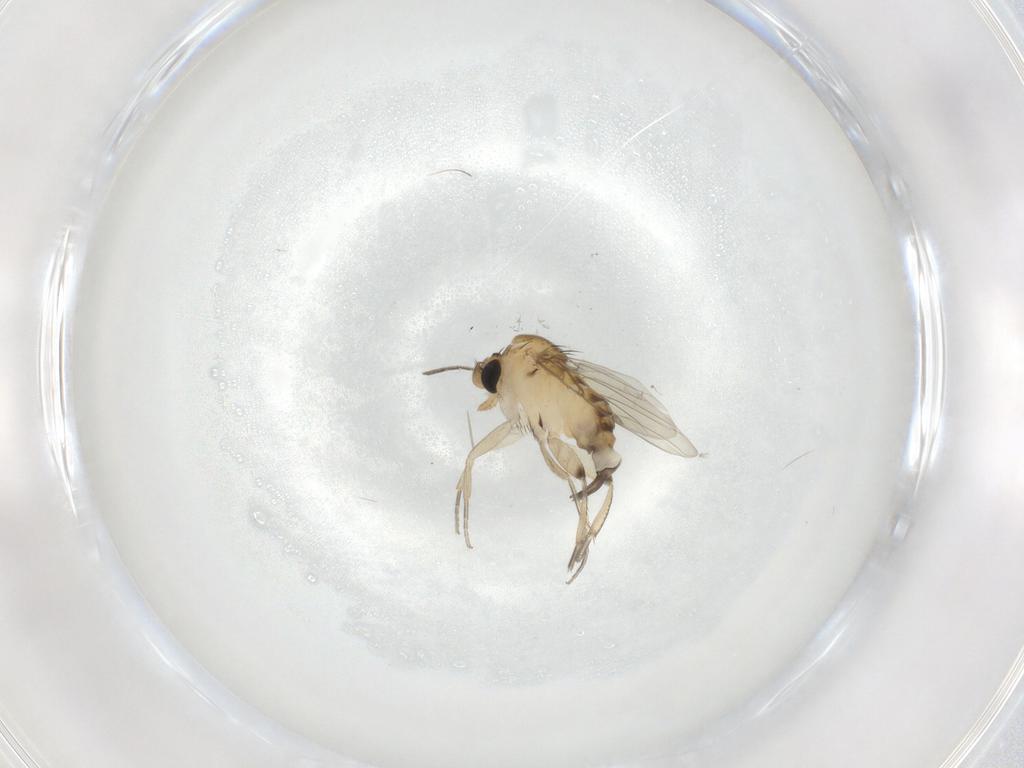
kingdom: Animalia
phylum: Arthropoda
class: Insecta
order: Diptera
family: Phoridae
